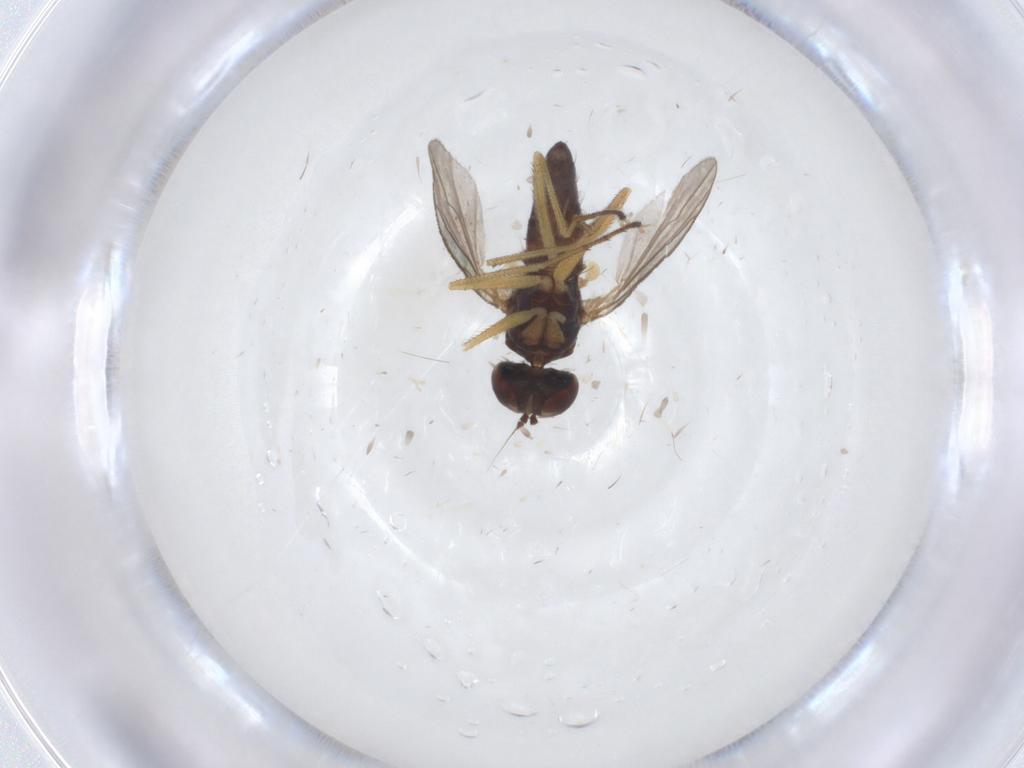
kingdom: Animalia
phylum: Arthropoda
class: Insecta
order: Diptera
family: Dolichopodidae
